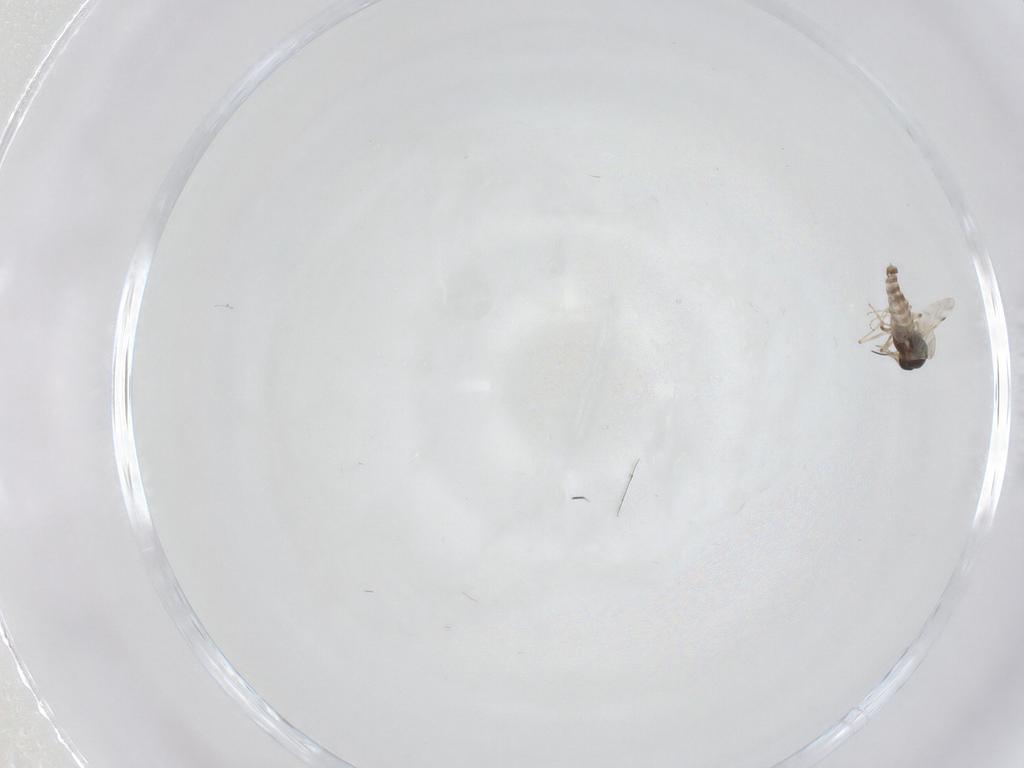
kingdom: Animalia
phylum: Arthropoda
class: Insecta
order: Diptera
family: Psychodidae
